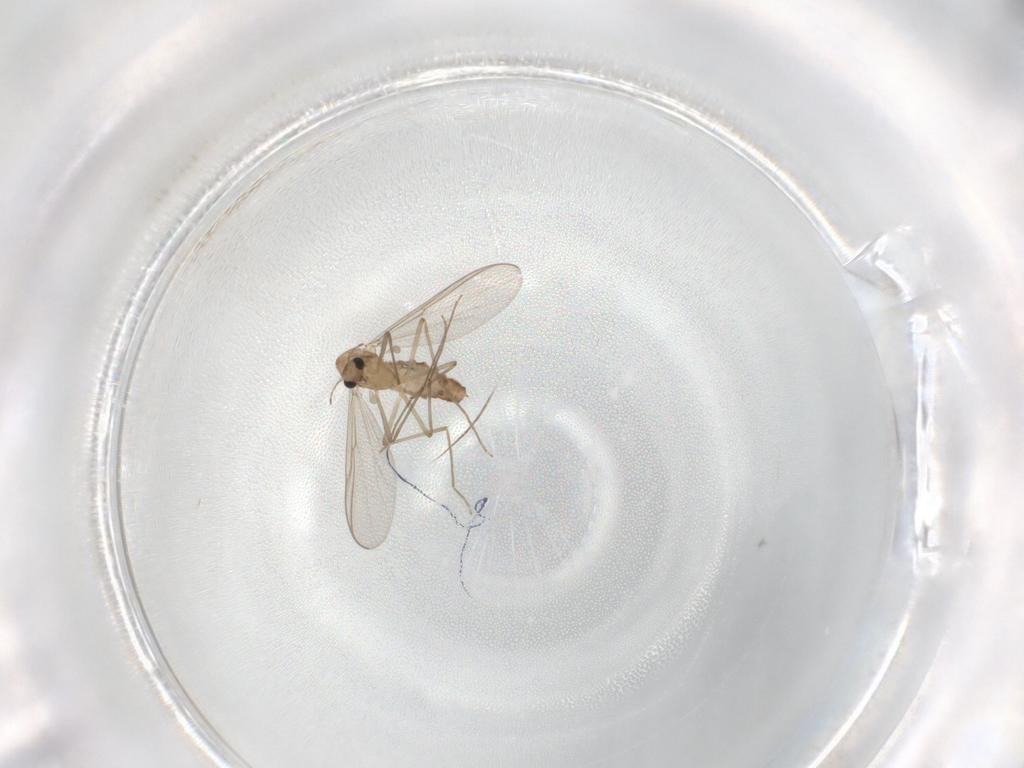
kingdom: Animalia
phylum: Arthropoda
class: Insecta
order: Diptera
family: Chironomidae
